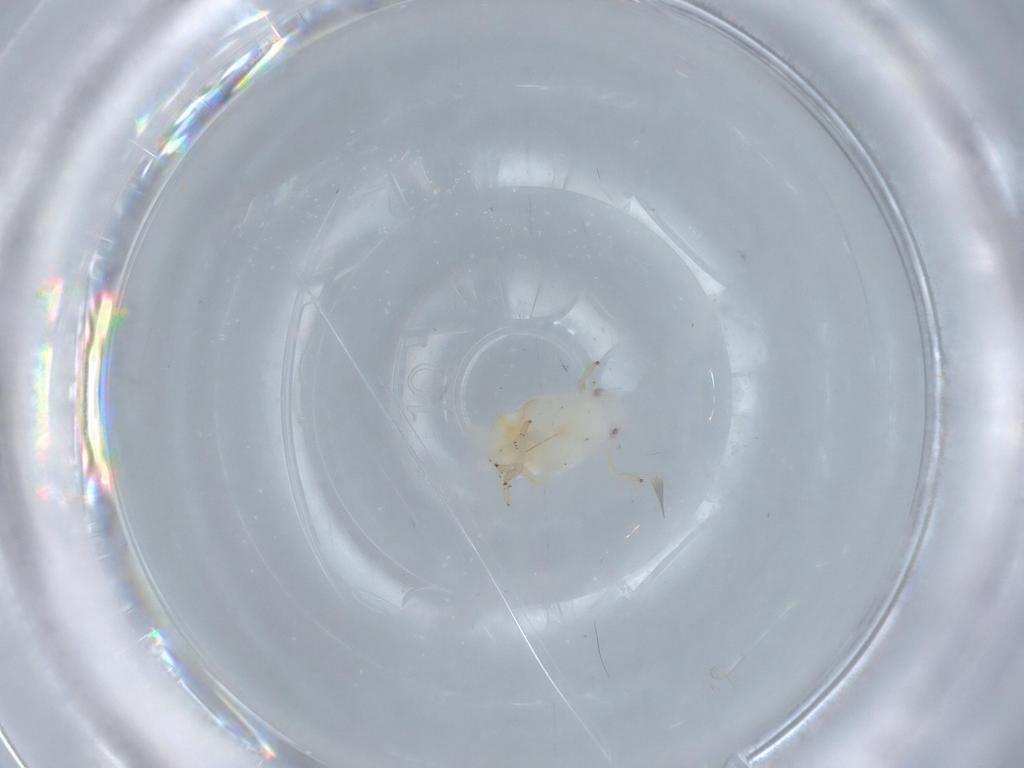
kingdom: Animalia
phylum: Arthropoda
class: Insecta
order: Hemiptera
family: Flatidae
